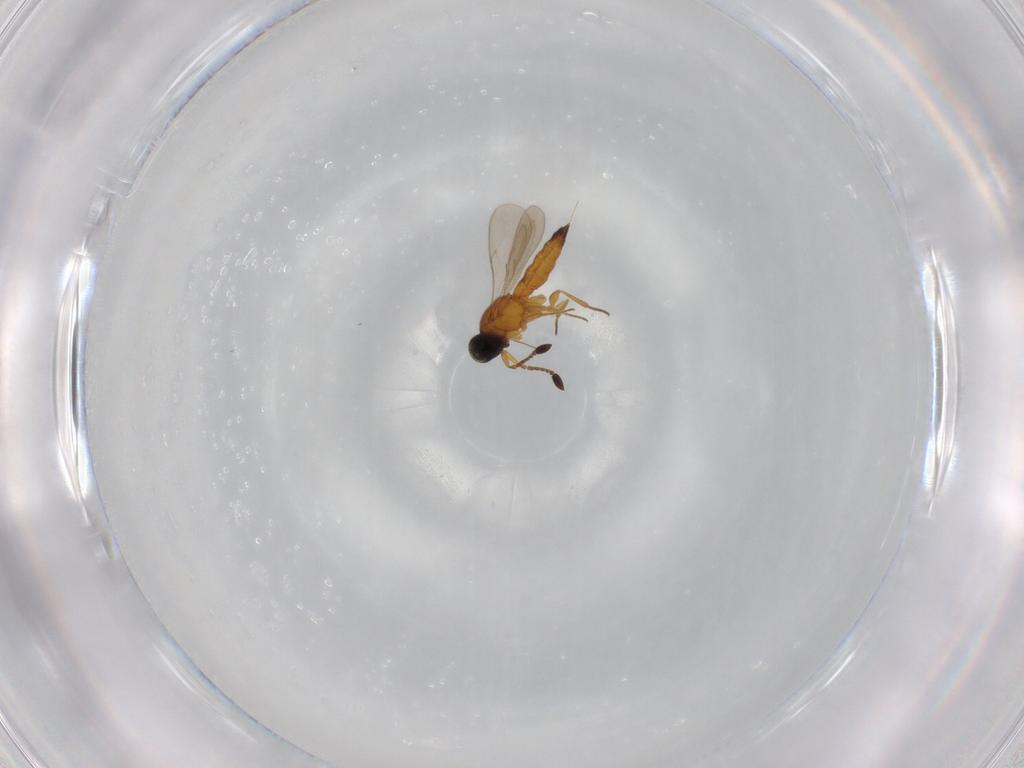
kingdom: Animalia
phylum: Arthropoda
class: Insecta
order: Hymenoptera
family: Scelionidae
